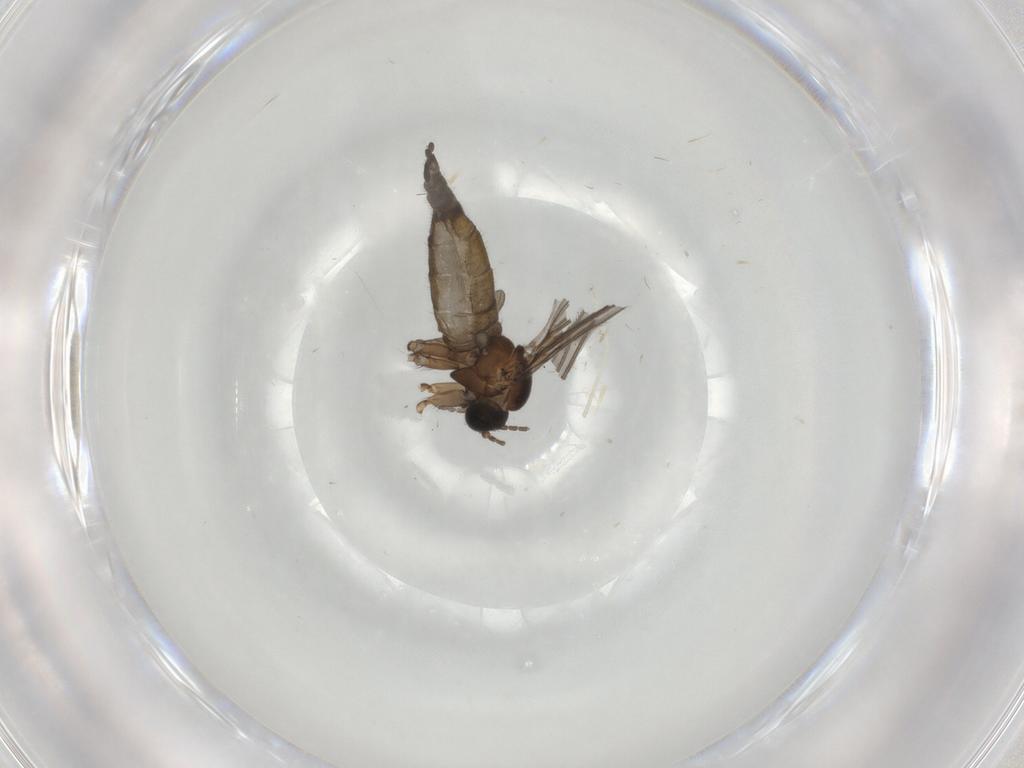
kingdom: Animalia
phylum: Arthropoda
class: Insecta
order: Diptera
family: Sciaridae
